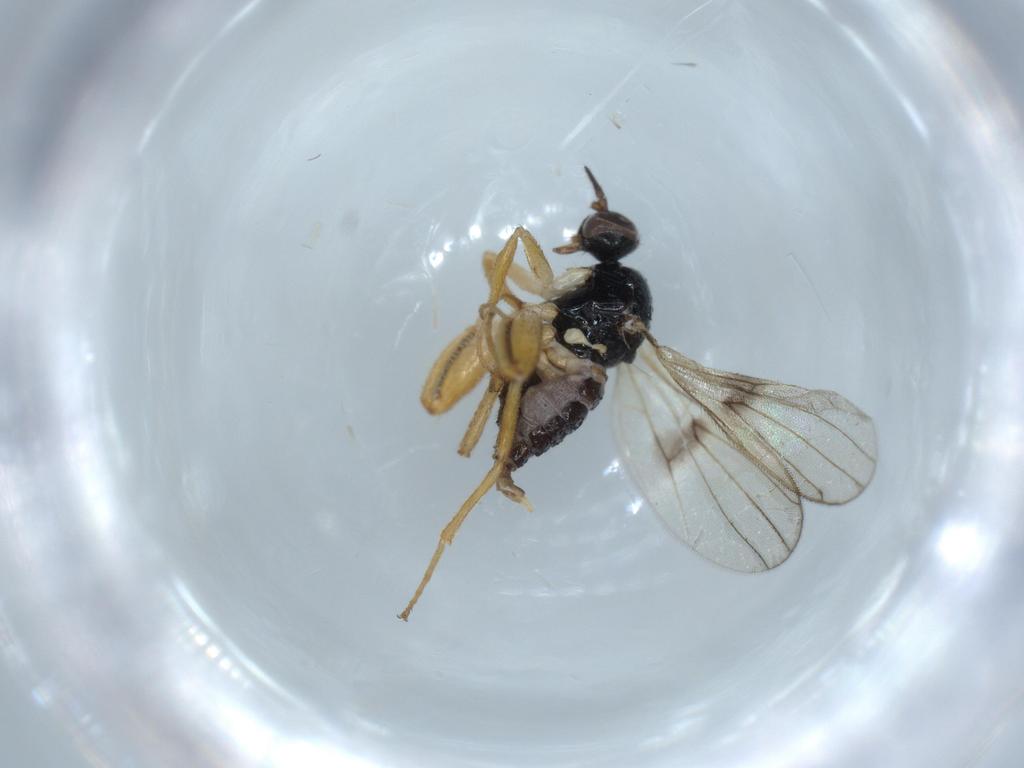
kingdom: Animalia
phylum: Arthropoda
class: Insecta
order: Diptera
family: Hybotidae
